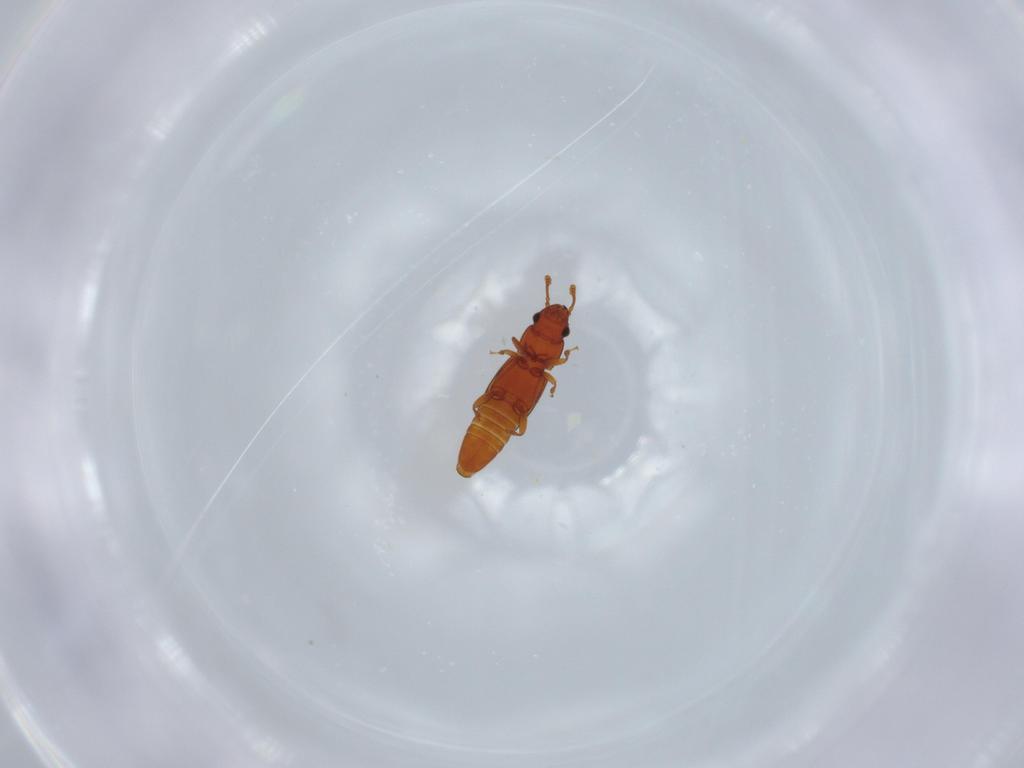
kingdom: Animalia
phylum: Arthropoda
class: Insecta
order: Coleoptera
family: Smicripidae
